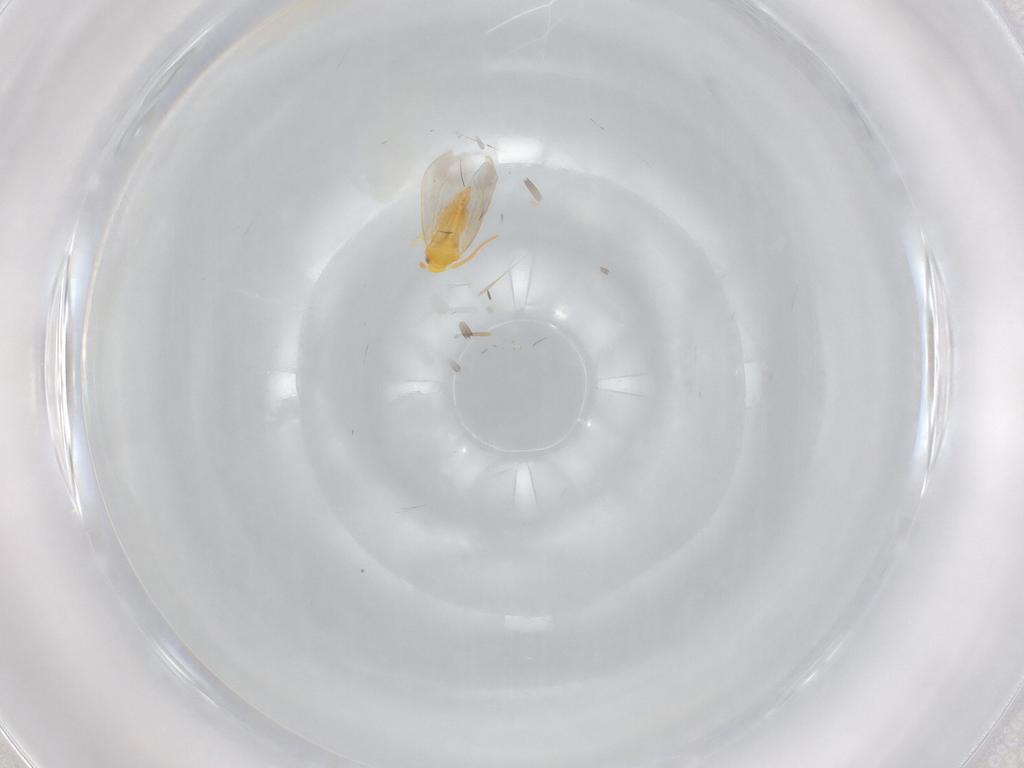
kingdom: Animalia
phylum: Arthropoda
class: Insecta
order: Hemiptera
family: Aleyrodidae
